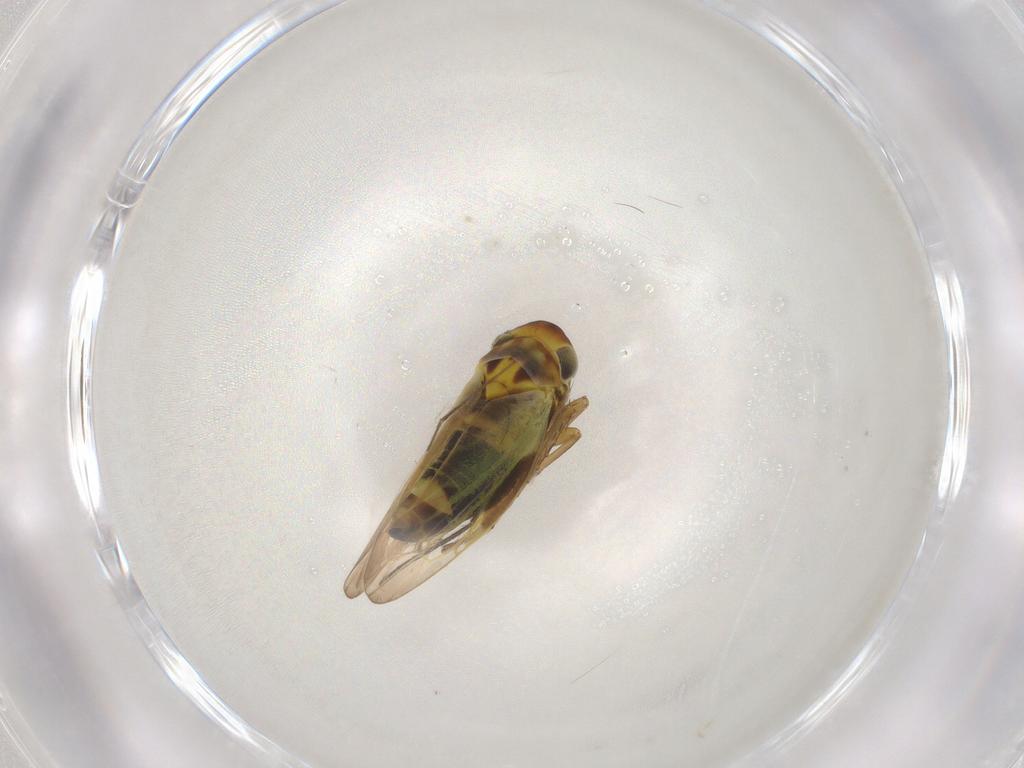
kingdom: Animalia
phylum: Arthropoda
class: Insecta
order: Hemiptera
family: Cicadellidae
